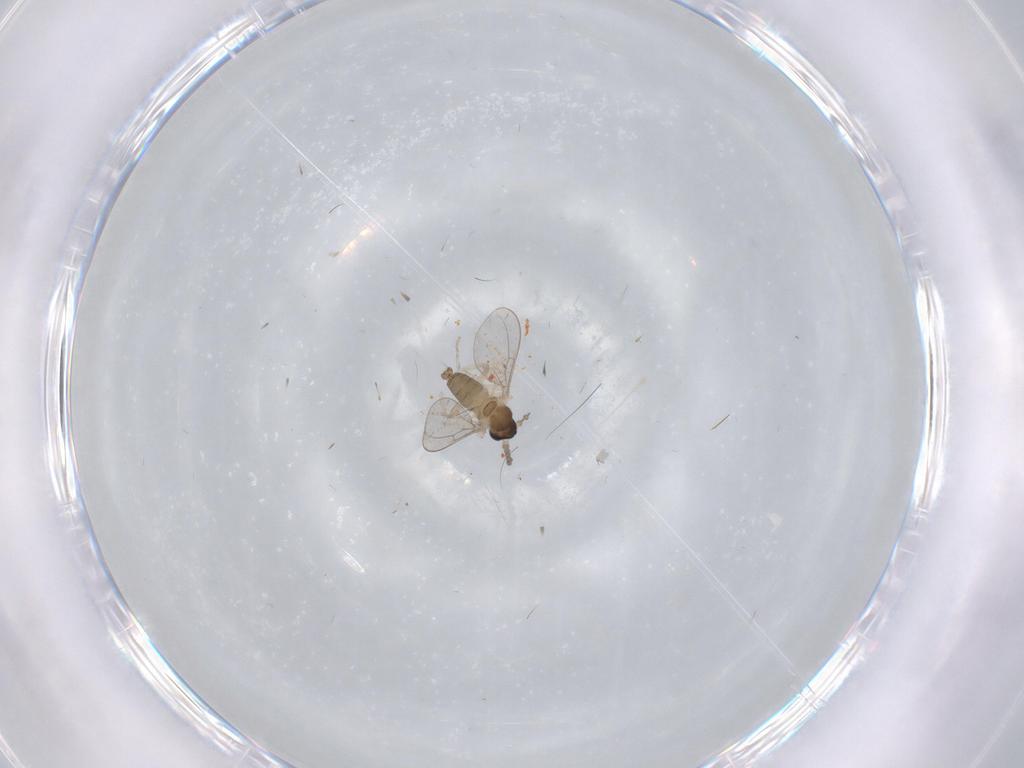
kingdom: Animalia
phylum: Arthropoda
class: Insecta
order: Diptera
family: Cecidomyiidae
